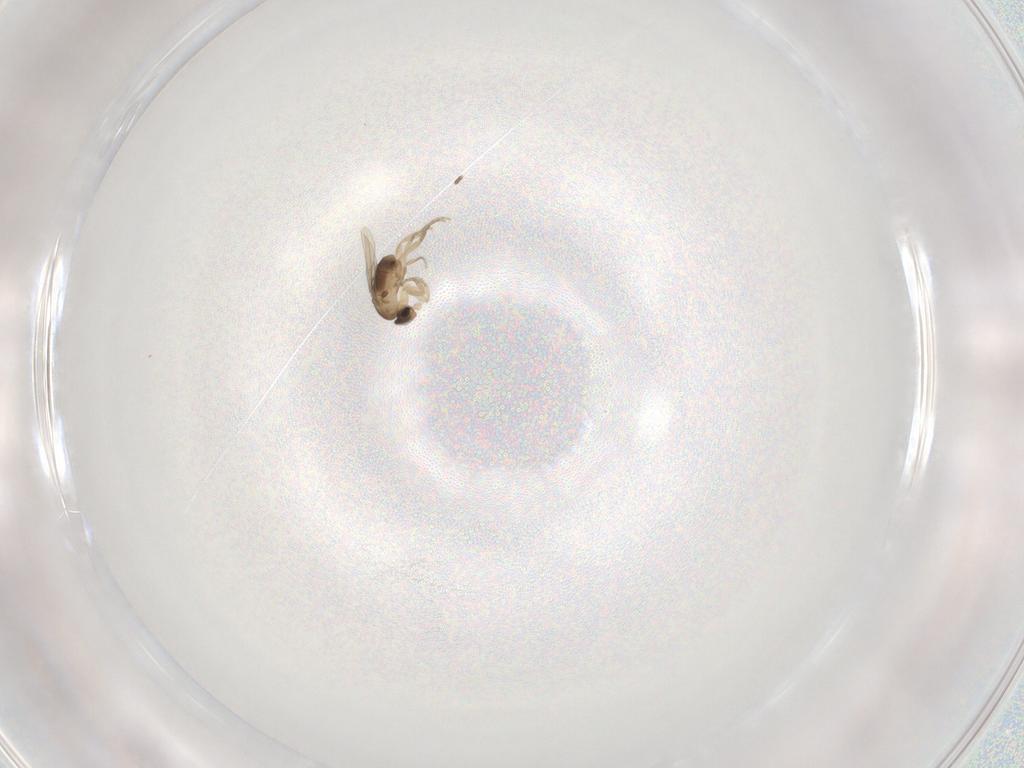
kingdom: Animalia
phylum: Arthropoda
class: Insecta
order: Diptera
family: Phoridae
